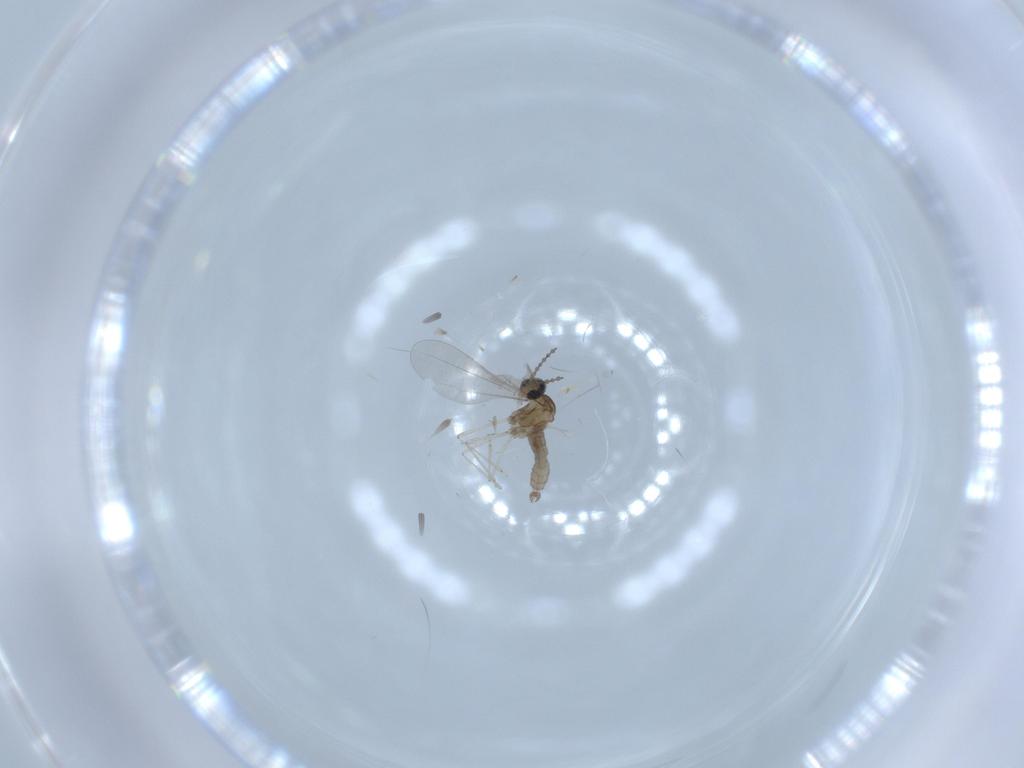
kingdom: Animalia
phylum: Arthropoda
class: Insecta
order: Diptera
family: Cecidomyiidae
